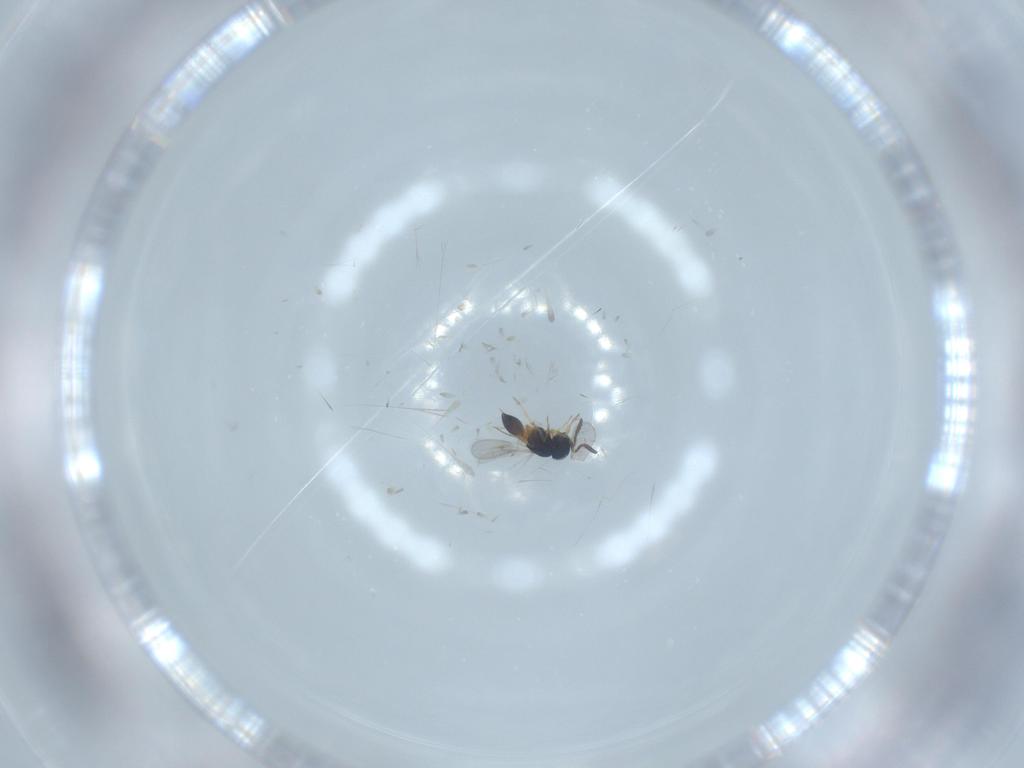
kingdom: Animalia
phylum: Arthropoda
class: Insecta
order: Hymenoptera
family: Scelionidae
